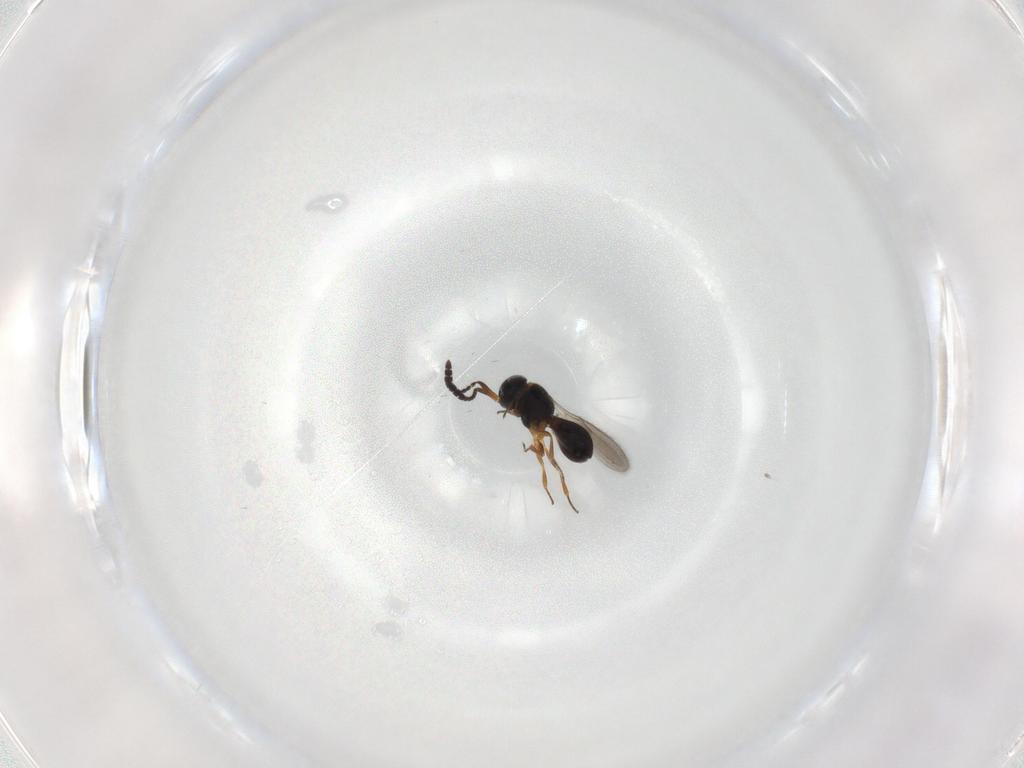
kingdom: Animalia
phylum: Arthropoda
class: Insecta
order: Hymenoptera
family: Scelionidae
